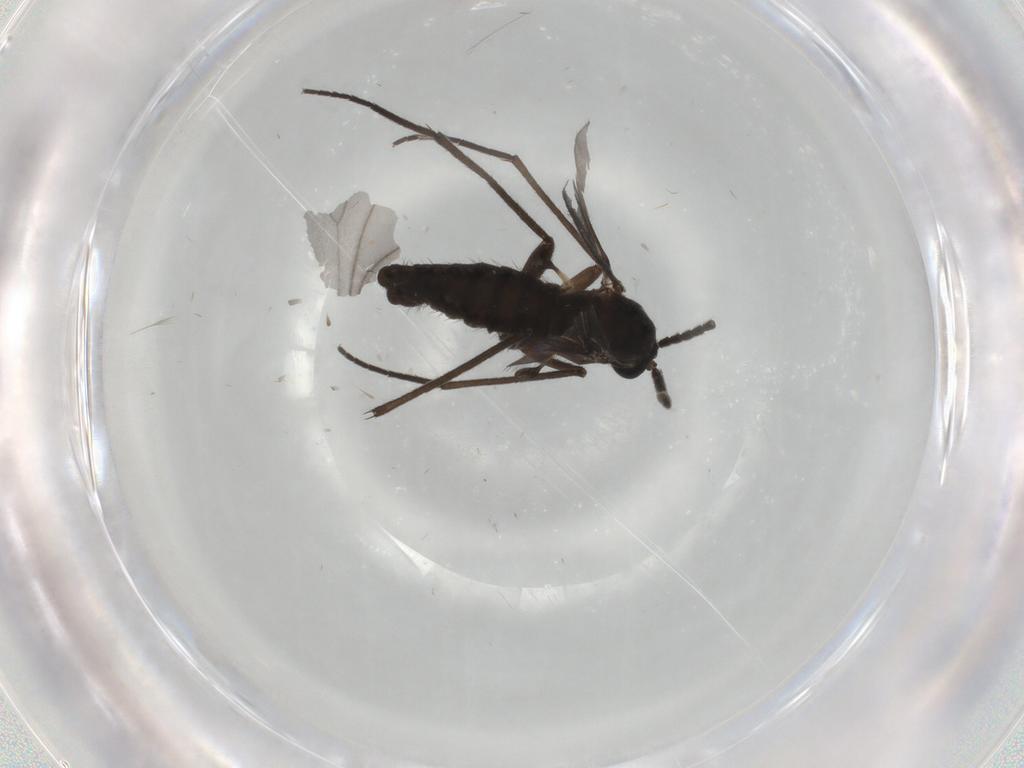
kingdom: Animalia
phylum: Arthropoda
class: Insecta
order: Diptera
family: Sciaridae
